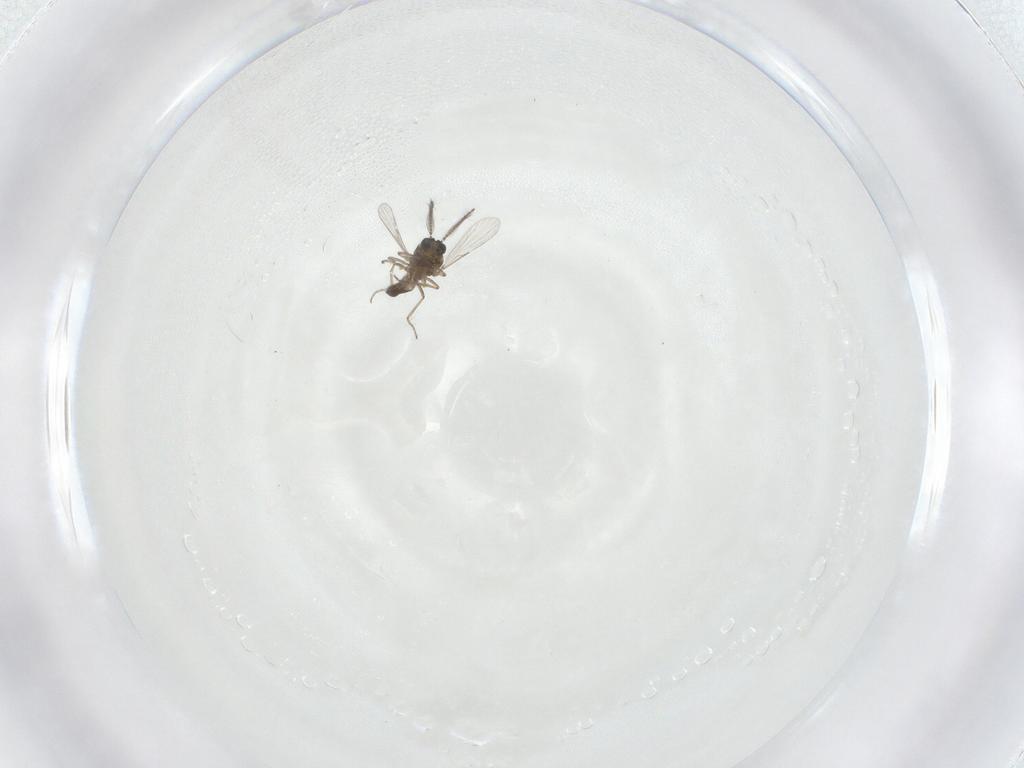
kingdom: Animalia
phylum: Arthropoda
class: Insecta
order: Diptera
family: Ceratopogonidae
